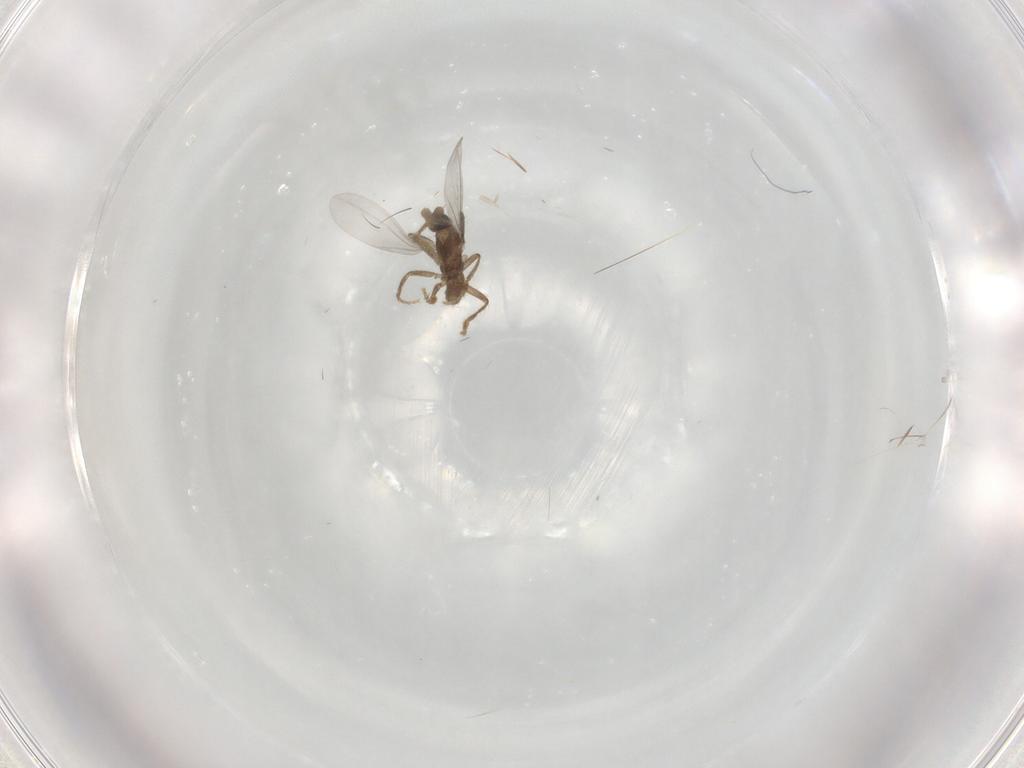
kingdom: Animalia
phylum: Arthropoda
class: Insecta
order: Diptera
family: Phoridae
